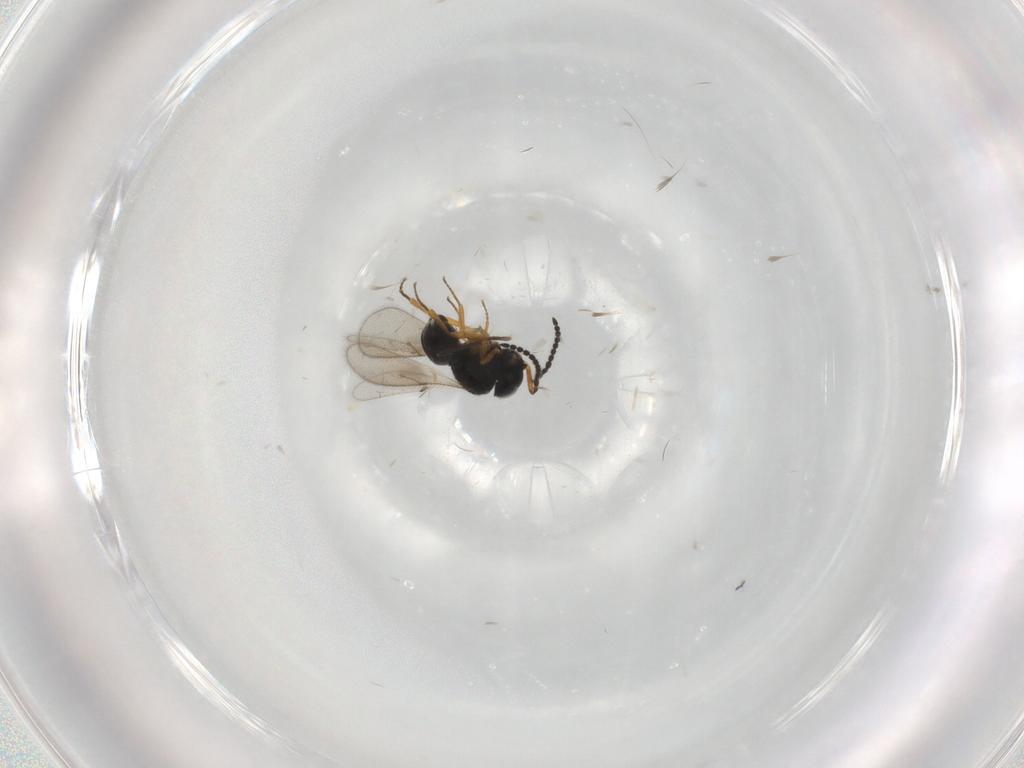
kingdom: Animalia
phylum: Arthropoda
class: Insecta
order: Hymenoptera
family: Scelionidae
